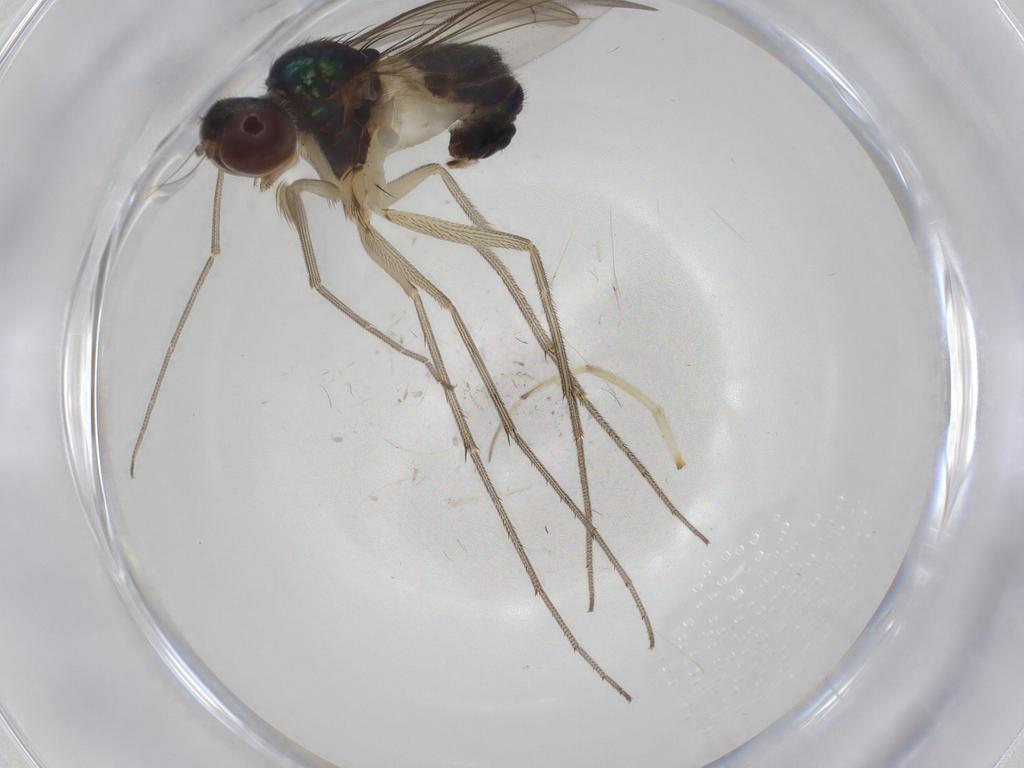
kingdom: Animalia
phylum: Arthropoda
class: Insecta
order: Diptera
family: Dolichopodidae
